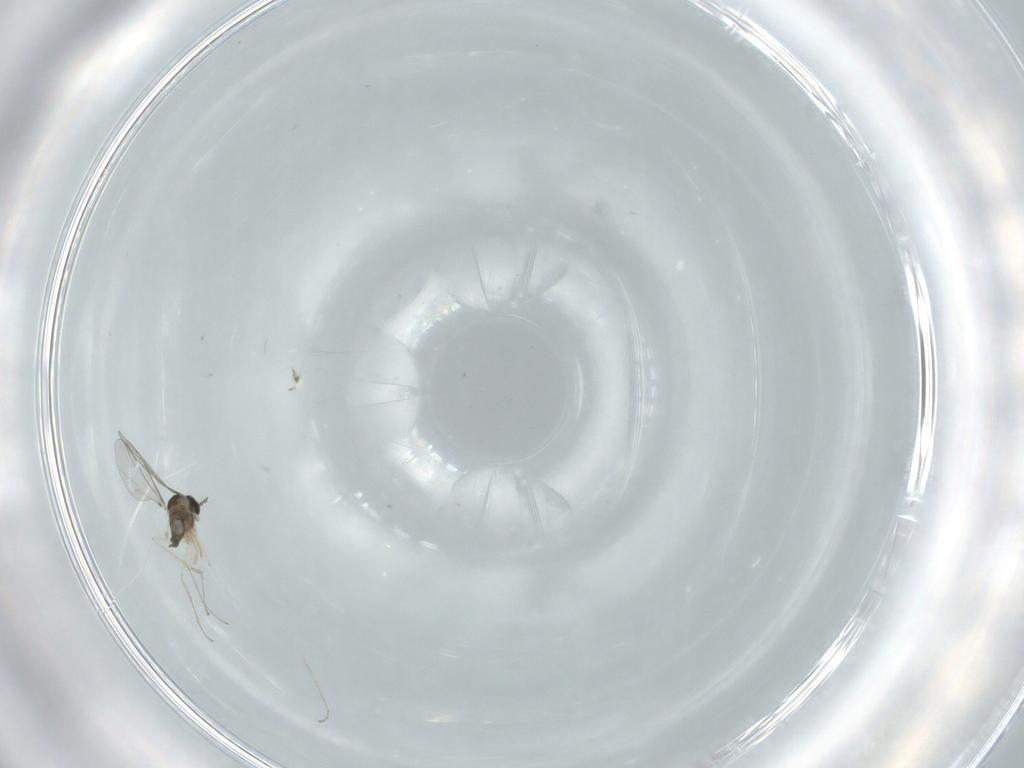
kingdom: Animalia
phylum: Arthropoda
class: Insecta
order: Diptera
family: Cecidomyiidae
